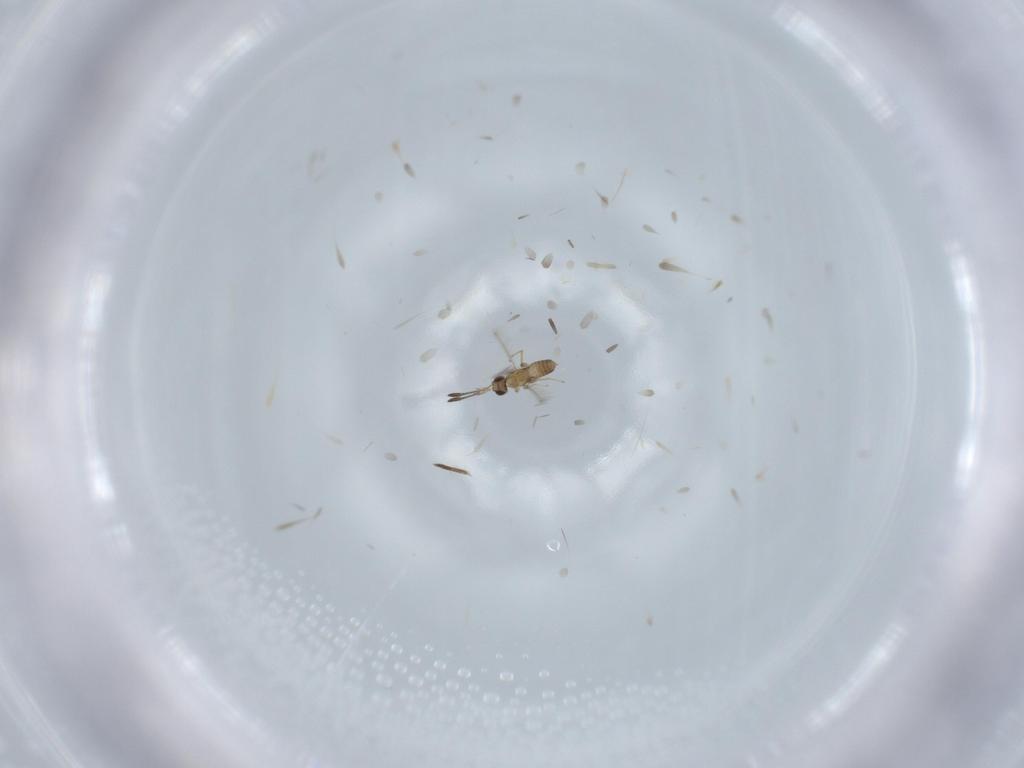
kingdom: Animalia
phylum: Arthropoda
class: Insecta
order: Hymenoptera
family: Mymaridae
